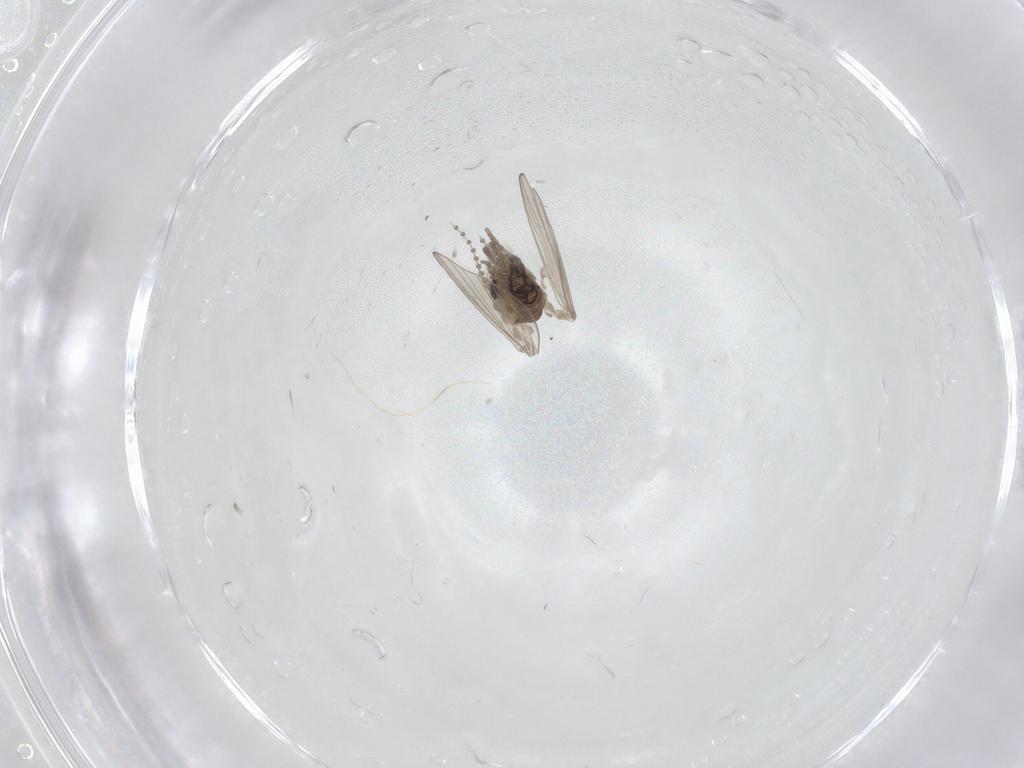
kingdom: Animalia
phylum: Arthropoda
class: Insecta
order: Diptera
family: Psychodidae
